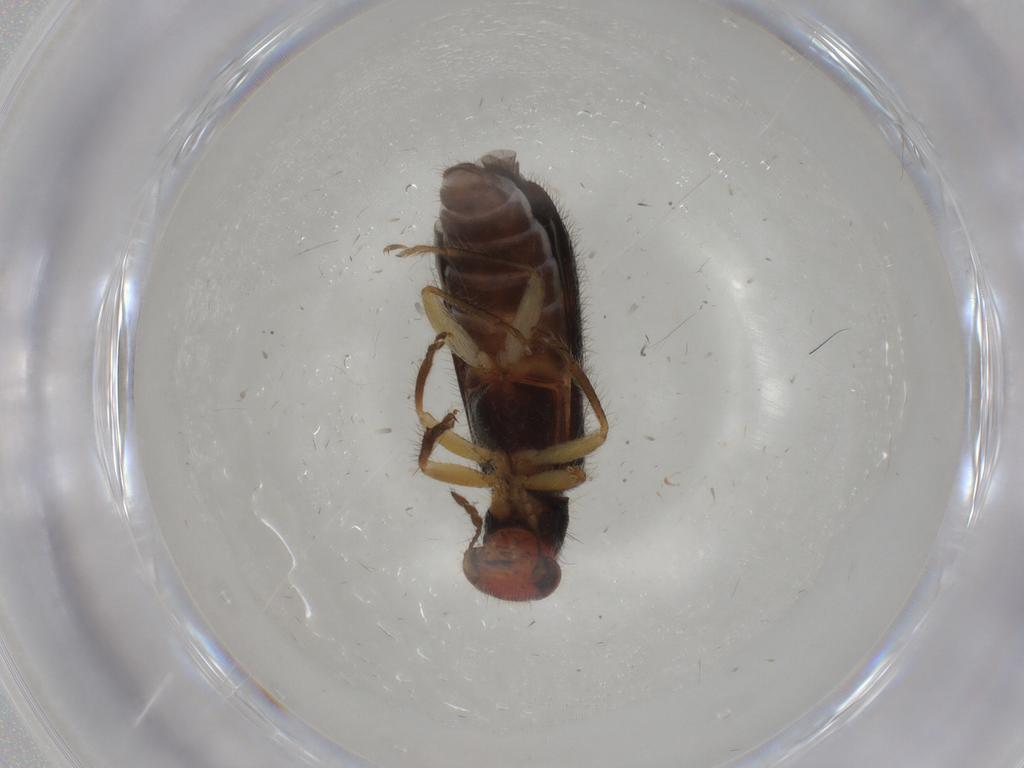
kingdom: Animalia
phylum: Arthropoda
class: Insecta
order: Coleoptera
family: Cleridae
